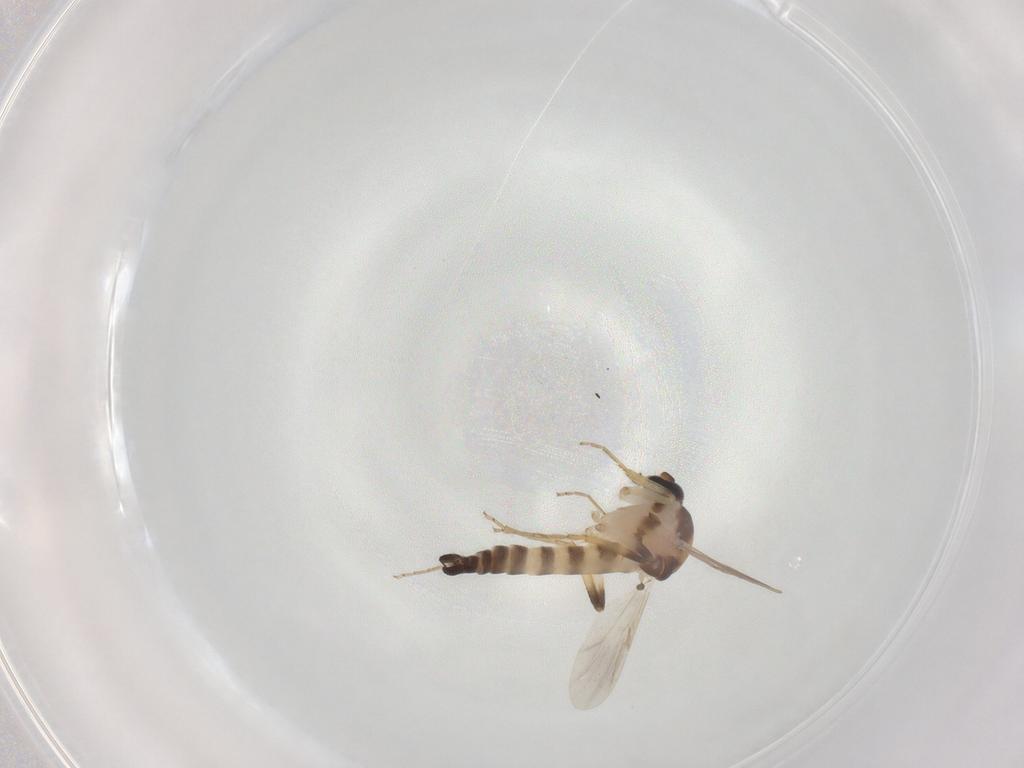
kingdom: Animalia
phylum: Arthropoda
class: Insecta
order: Diptera
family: Ceratopogonidae
